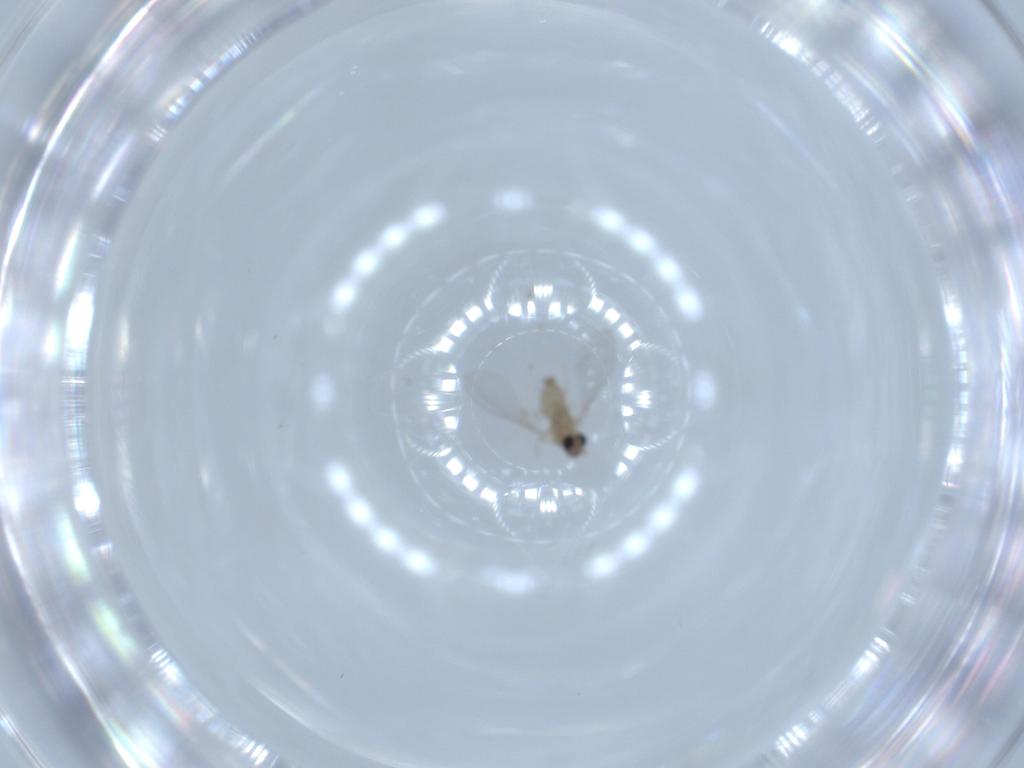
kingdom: Animalia
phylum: Arthropoda
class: Insecta
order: Diptera
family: Cecidomyiidae
